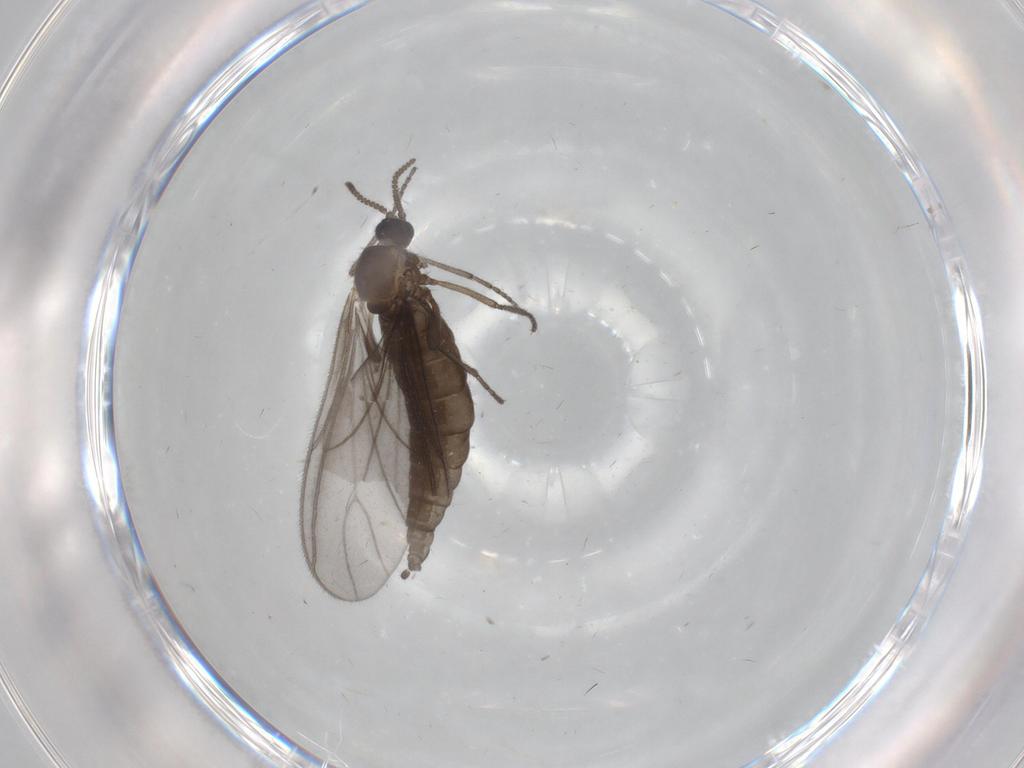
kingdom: Animalia
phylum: Arthropoda
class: Insecta
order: Diptera
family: Sciaridae
